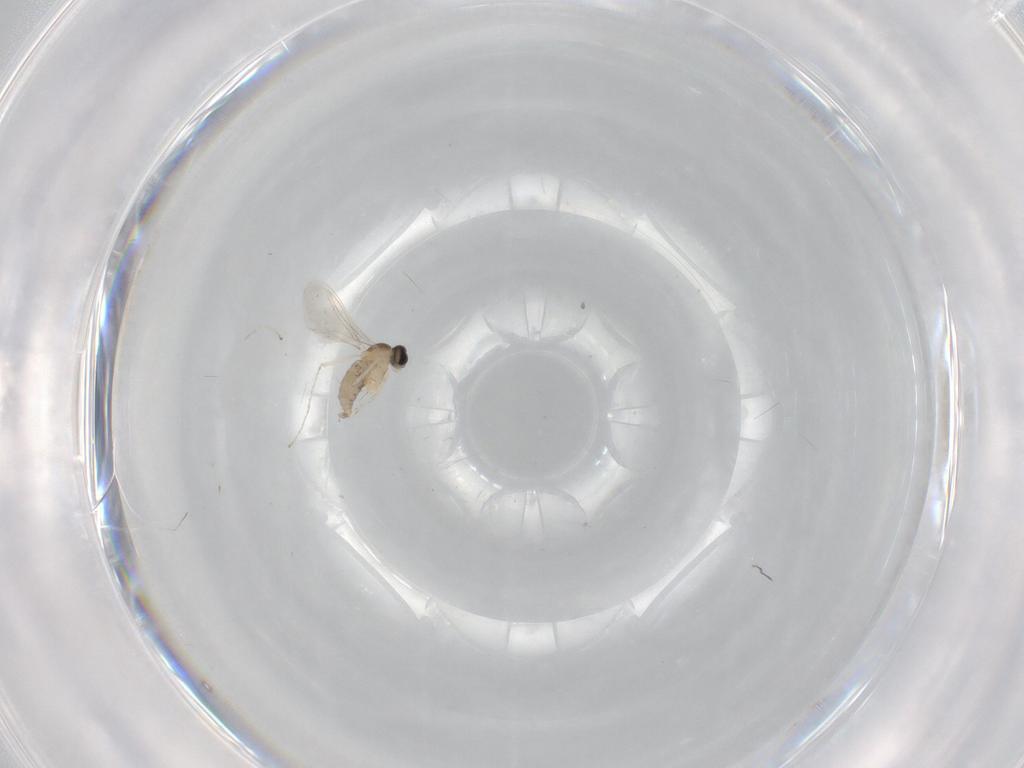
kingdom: Animalia
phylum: Arthropoda
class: Insecta
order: Diptera
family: Cecidomyiidae
